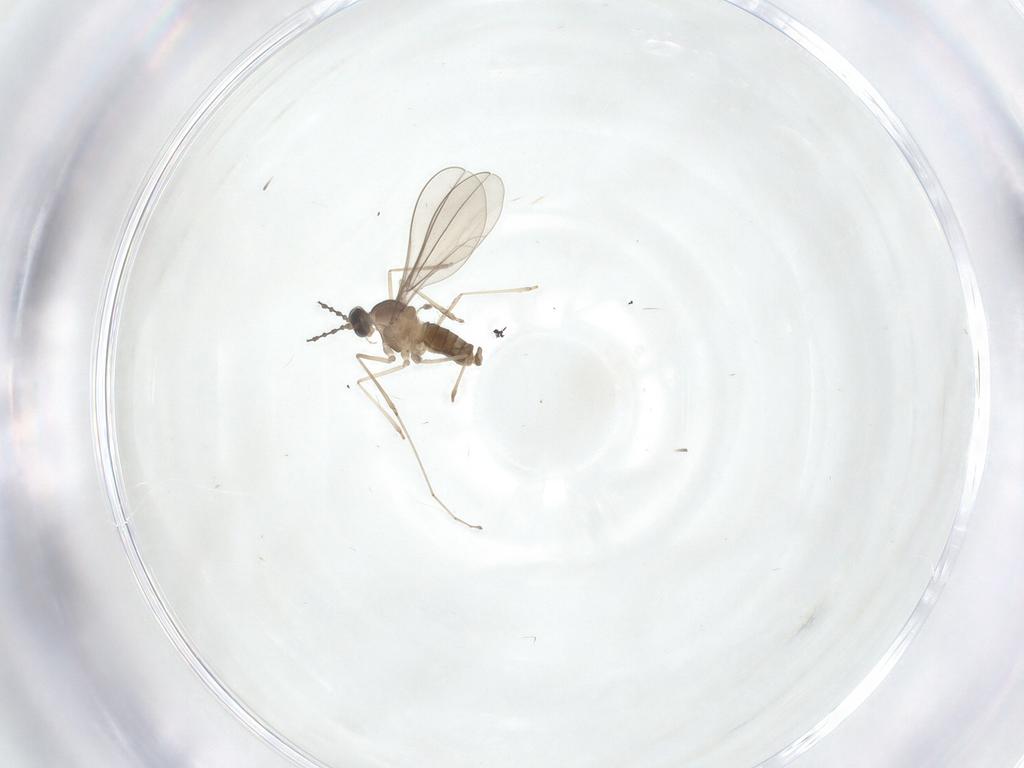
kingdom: Animalia
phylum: Arthropoda
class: Insecta
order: Diptera
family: Cecidomyiidae
